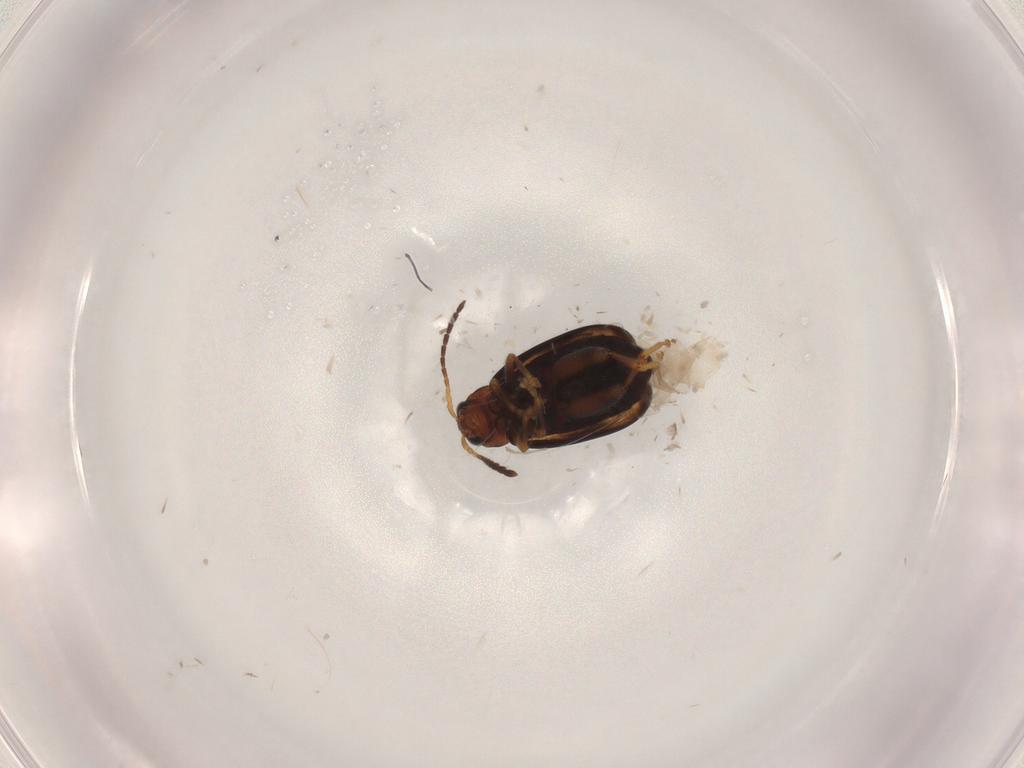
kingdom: Animalia
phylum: Arthropoda
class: Insecta
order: Coleoptera
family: Chrysomelidae
